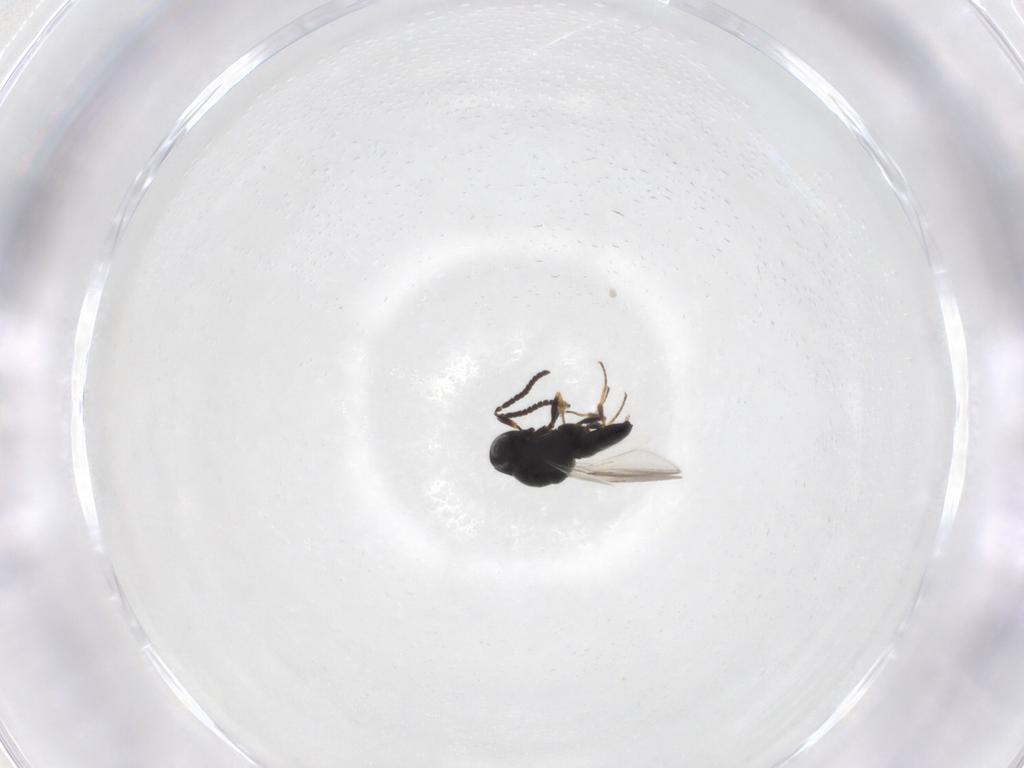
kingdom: Animalia
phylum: Arthropoda
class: Insecta
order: Hymenoptera
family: Scelionidae
